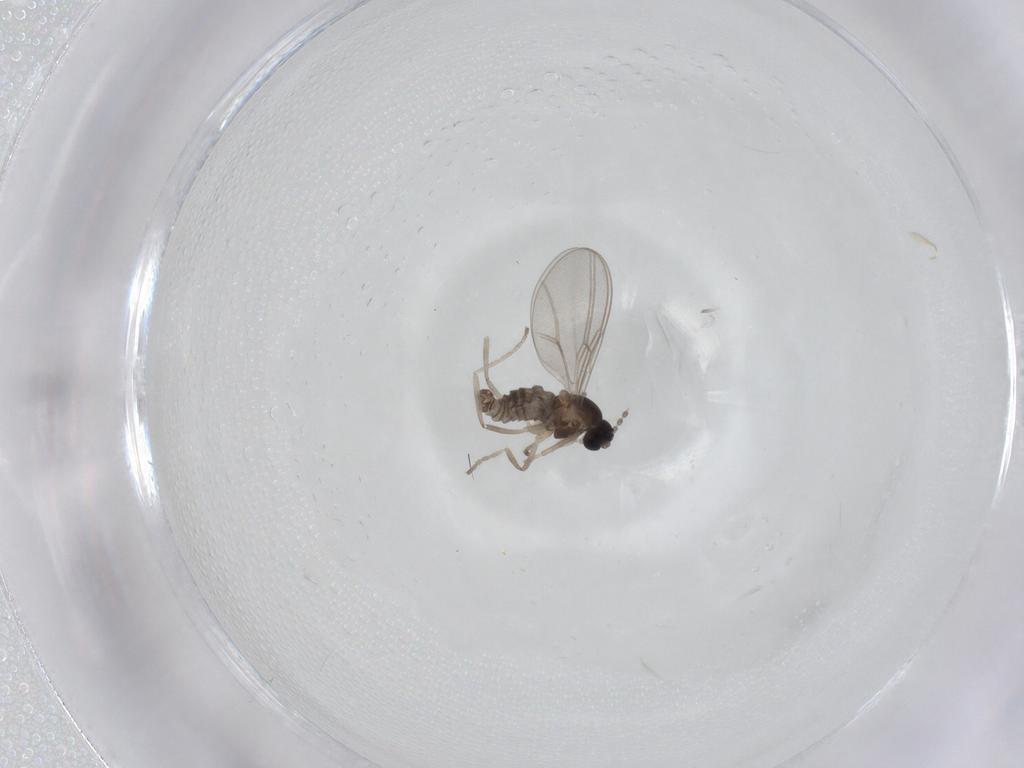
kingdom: Animalia
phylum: Arthropoda
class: Insecta
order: Diptera
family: Cecidomyiidae
